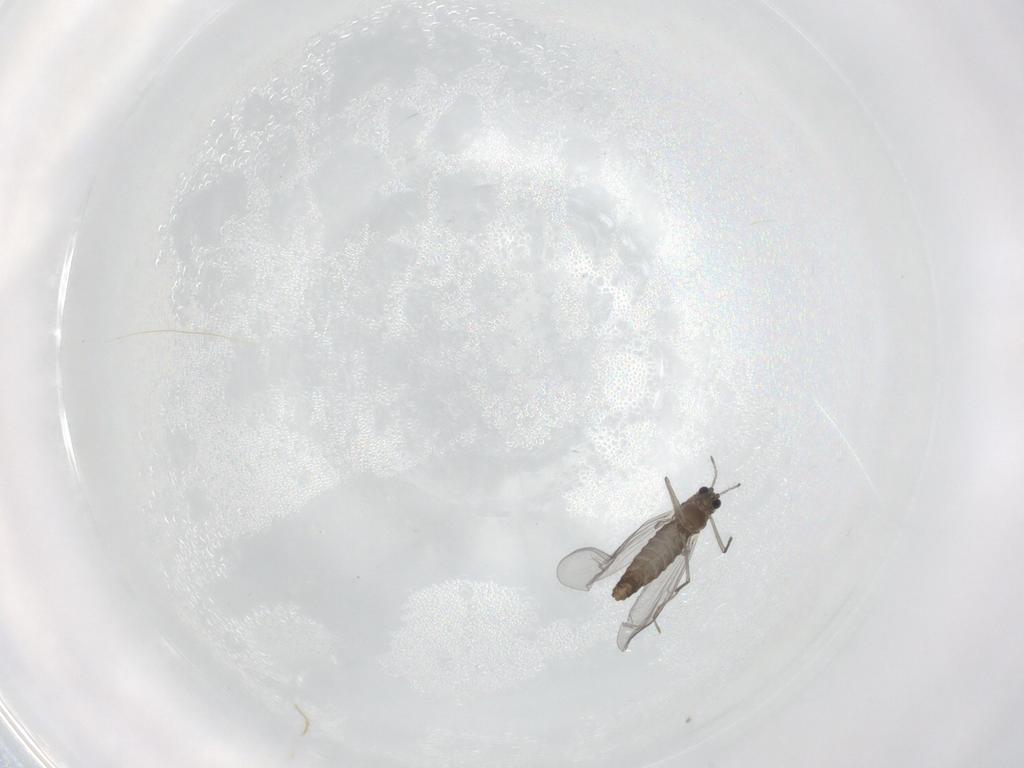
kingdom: Animalia
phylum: Arthropoda
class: Insecta
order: Diptera
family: Chironomidae
